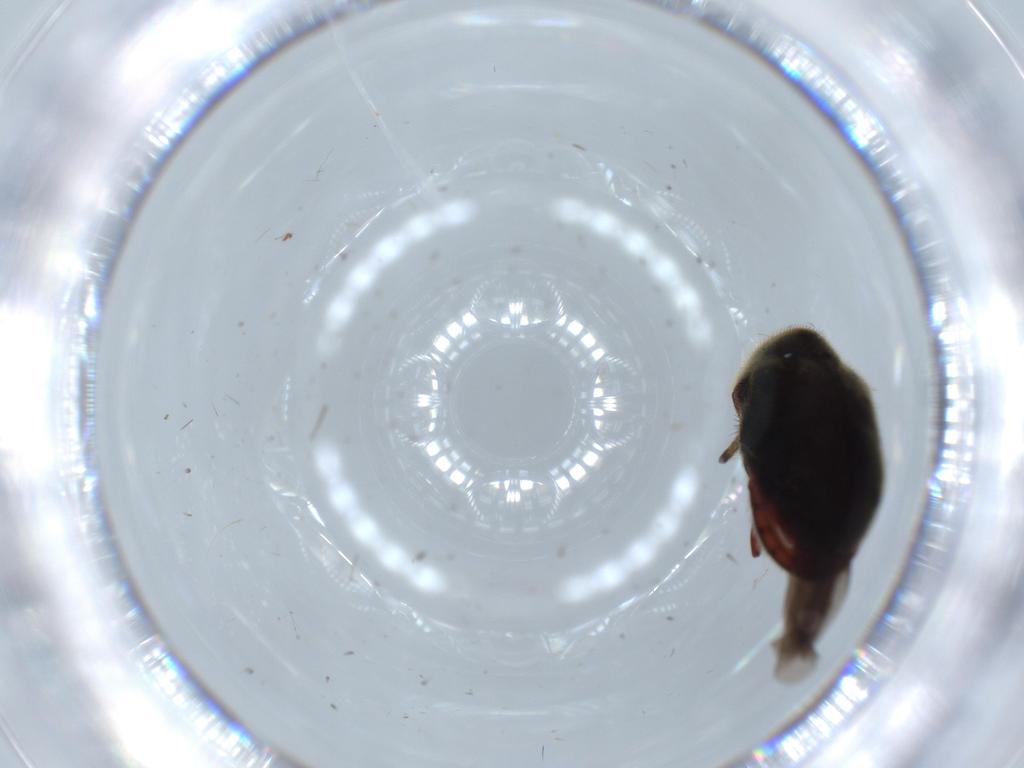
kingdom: Animalia
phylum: Arthropoda
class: Insecta
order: Coleoptera
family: Ptinidae
